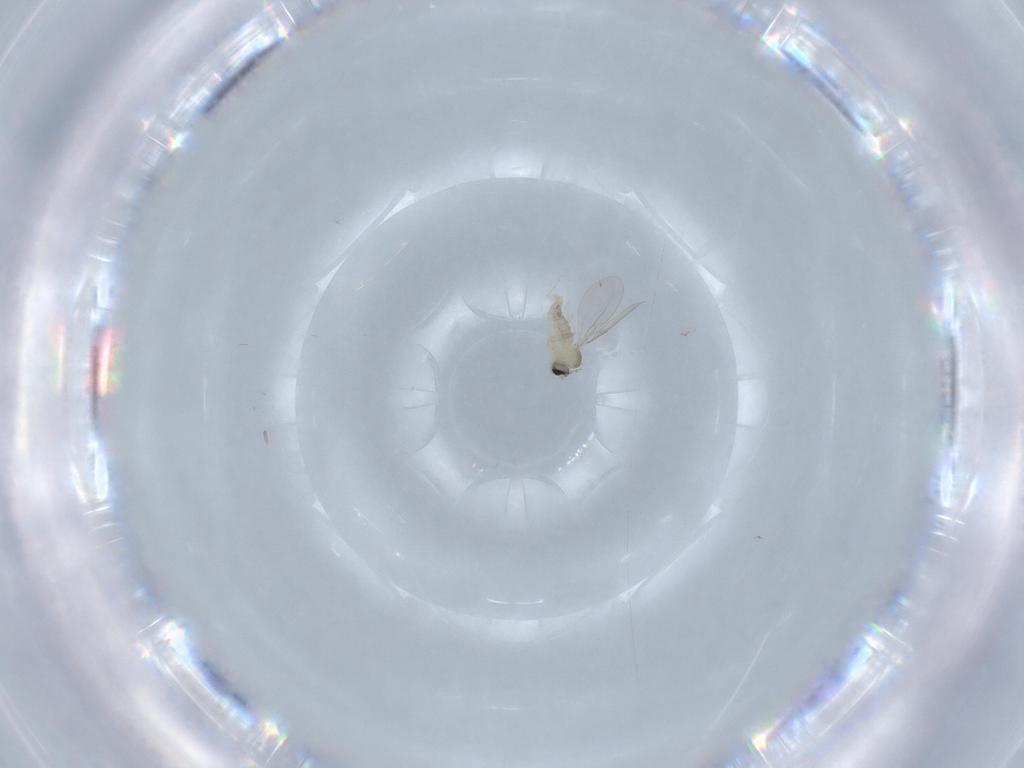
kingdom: Animalia
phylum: Arthropoda
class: Insecta
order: Diptera
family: Cecidomyiidae
